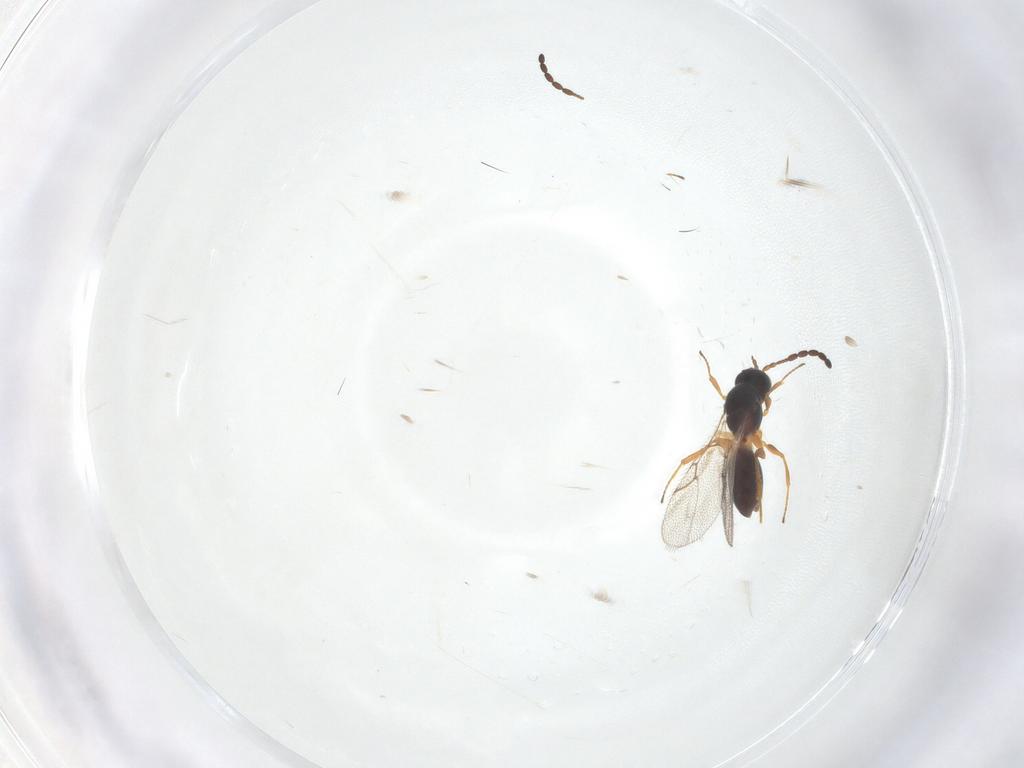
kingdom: Animalia
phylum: Arthropoda
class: Insecta
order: Hymenoptera
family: Figitidae
